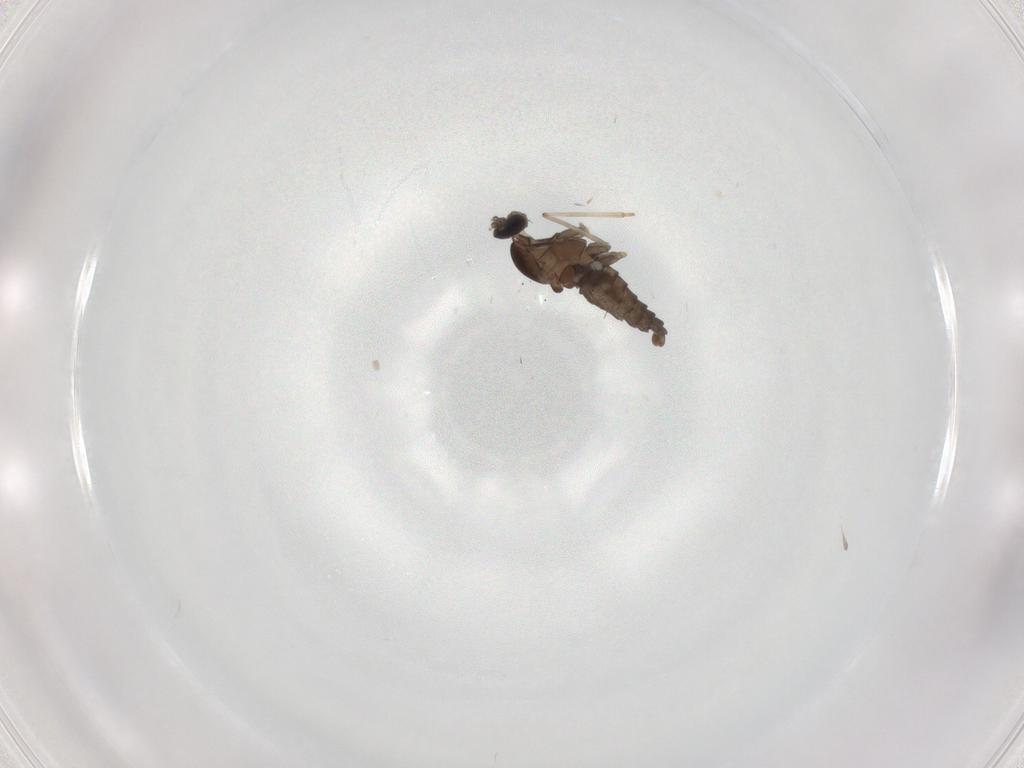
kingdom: Animalia
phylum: Arthropoda
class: Insecta
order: Diptera
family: Cecidomyiidae
